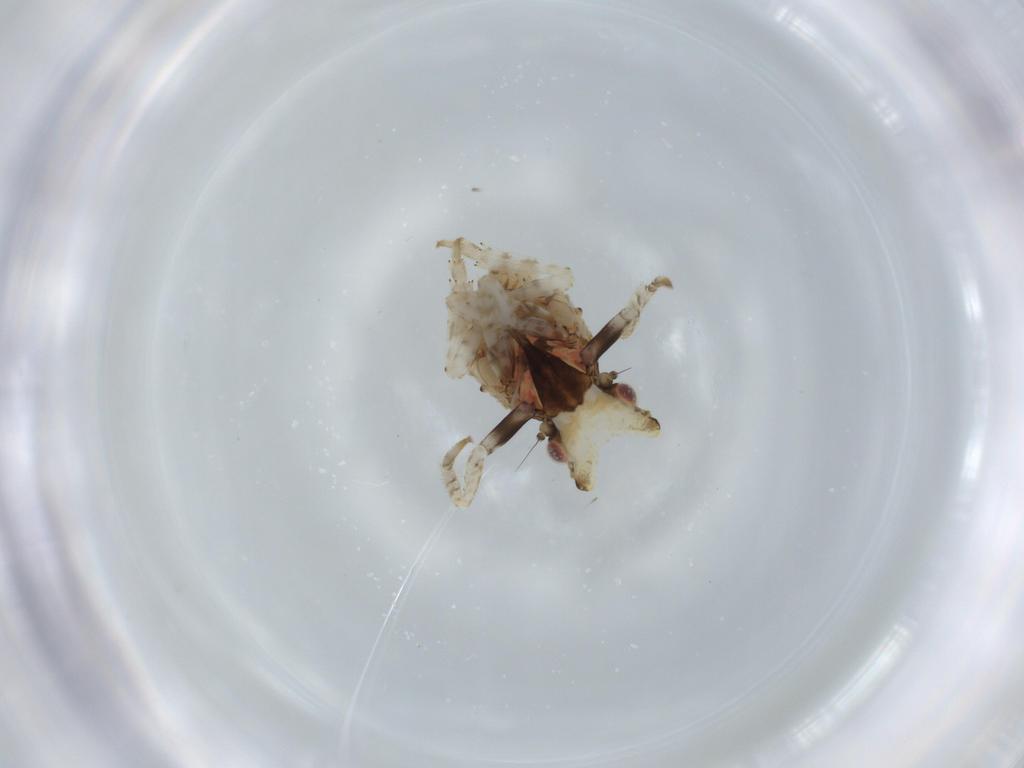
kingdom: Animalia
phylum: Arthropoda
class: Insecta
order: Hemiptera
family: Fulgoridae
